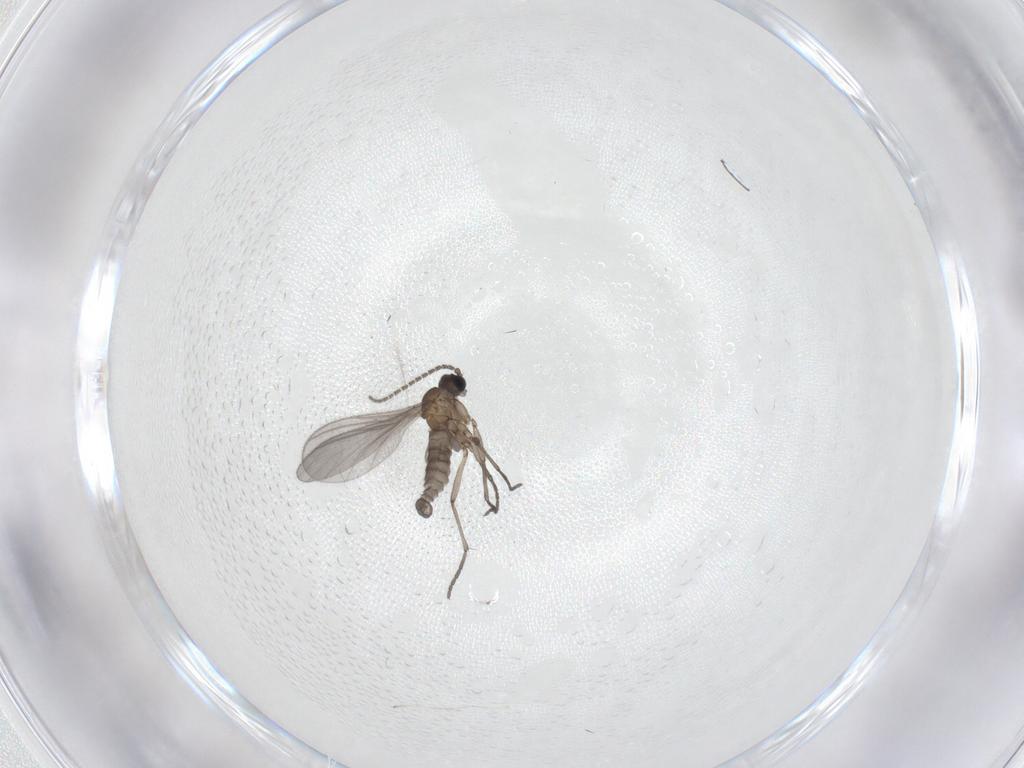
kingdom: Animalia
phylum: Arthropoda
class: Insecta
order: Diptera
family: Sciaridae
